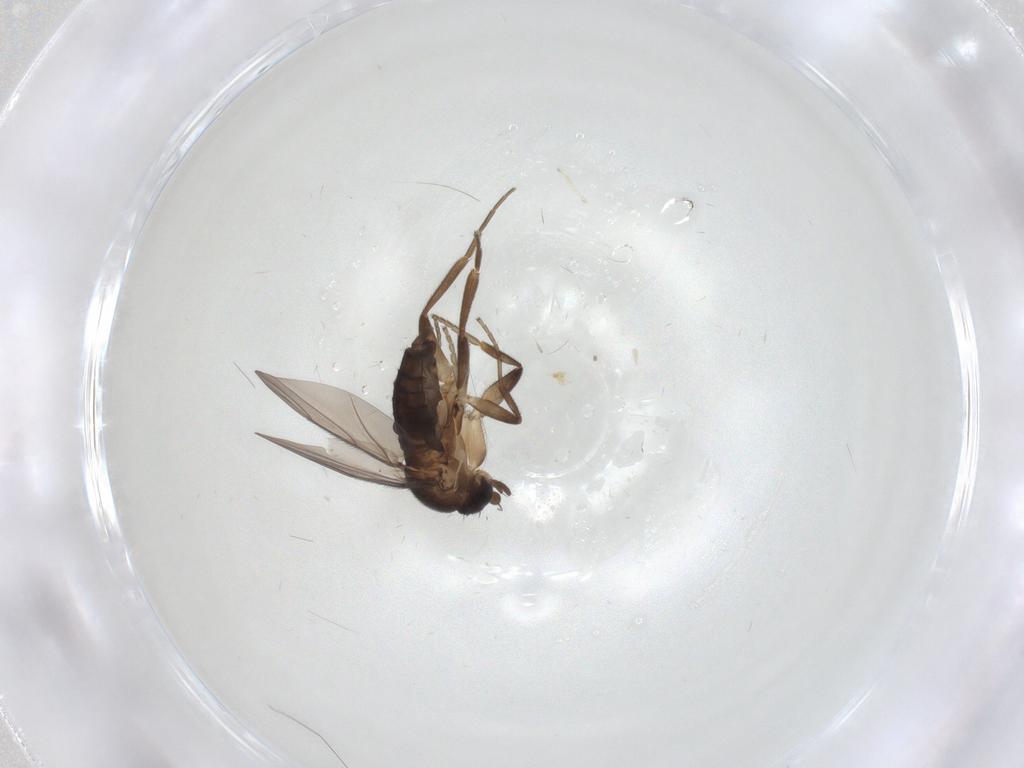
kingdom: Animalia
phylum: Arthropoda
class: Insecta
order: Diptera
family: Phoridae
